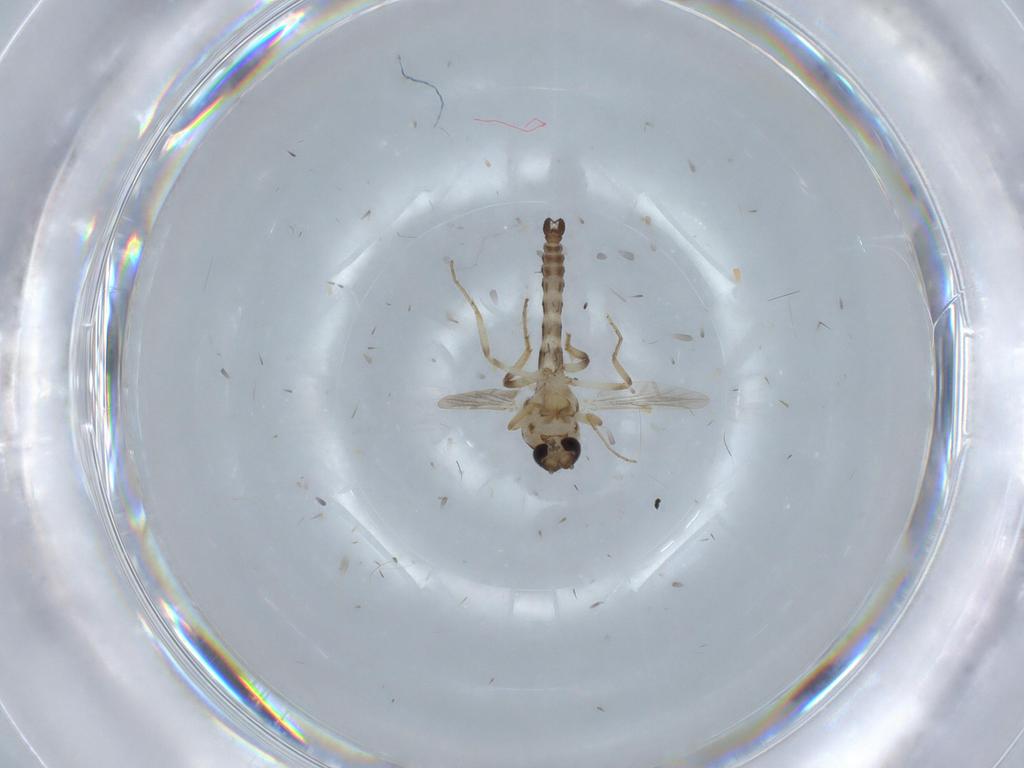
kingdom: Animalia
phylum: Arthropoda
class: Insecta
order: Diptera
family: Ceratopogonidae
